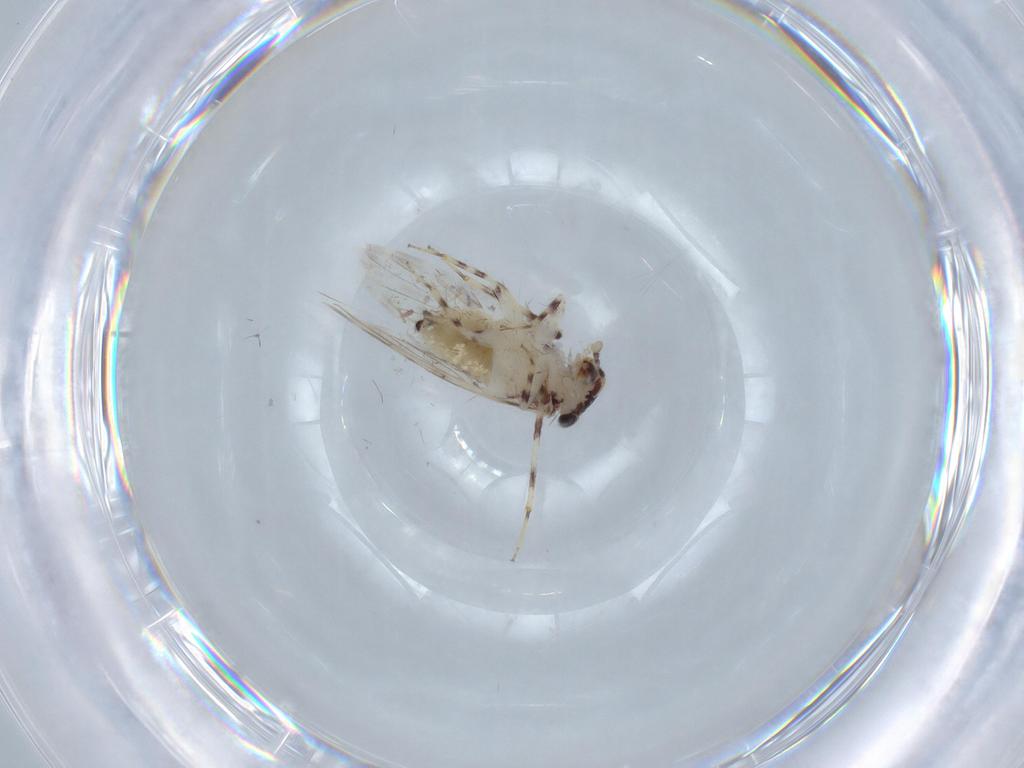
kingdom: Animalia
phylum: Arthropoda
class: Insecta
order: Psocodea
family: Lepidopsocidae
